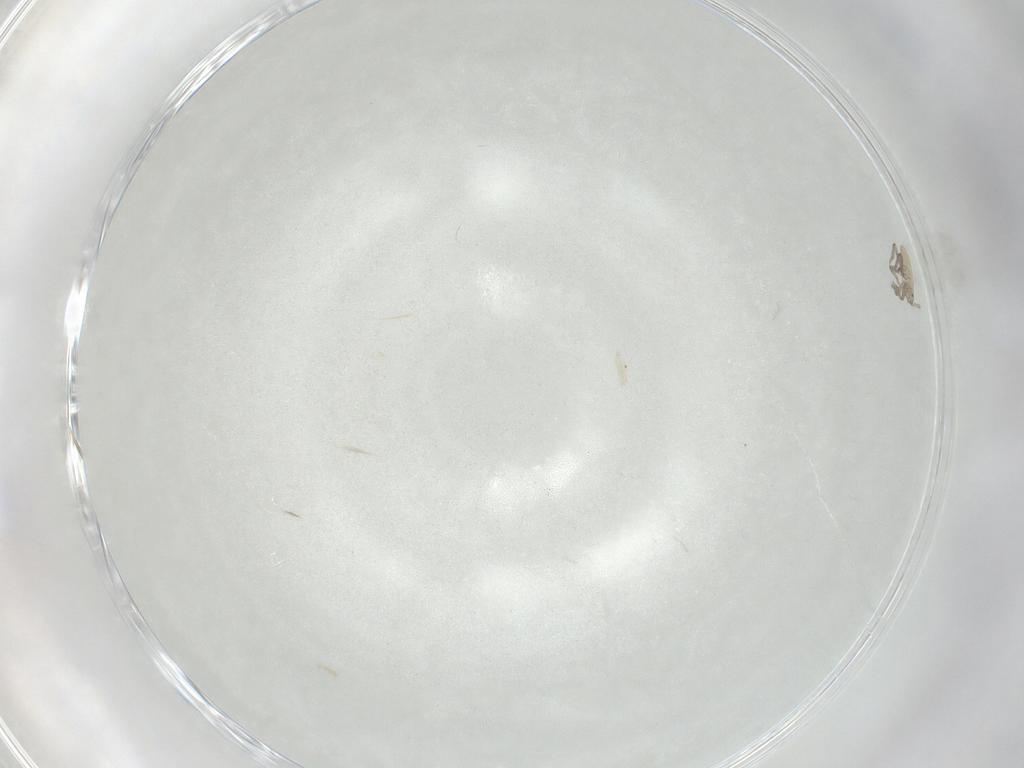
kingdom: Animalia
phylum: Arthropoda
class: Insecta
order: Hemiptera
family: Aphididae
